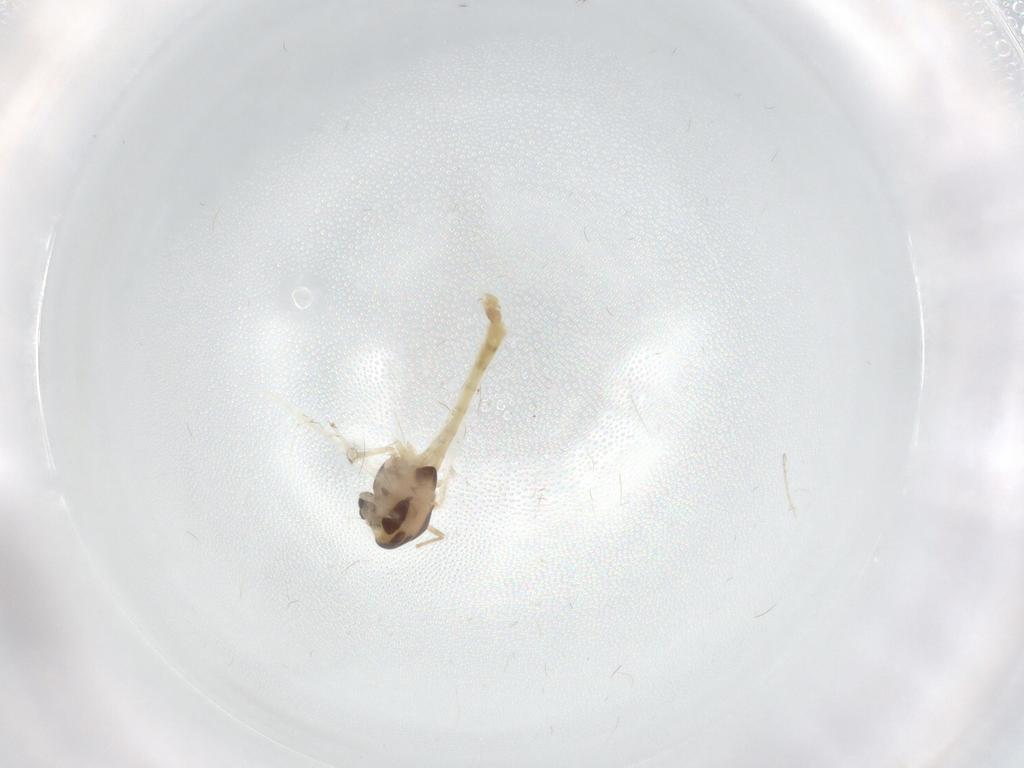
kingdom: Animalia
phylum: Arthropoda
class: Insecta
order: Diptera
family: Chironomidae
